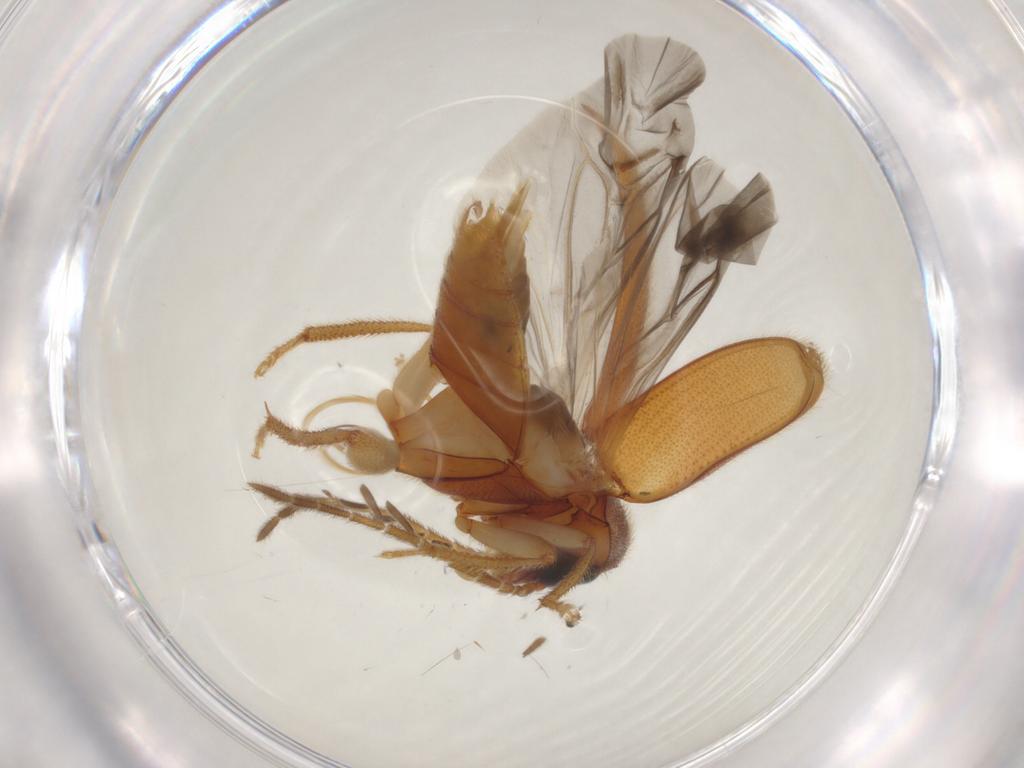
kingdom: Animalia
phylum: Arthropoda
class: Insecta
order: Coleoptera
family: Ptilodactylidae
